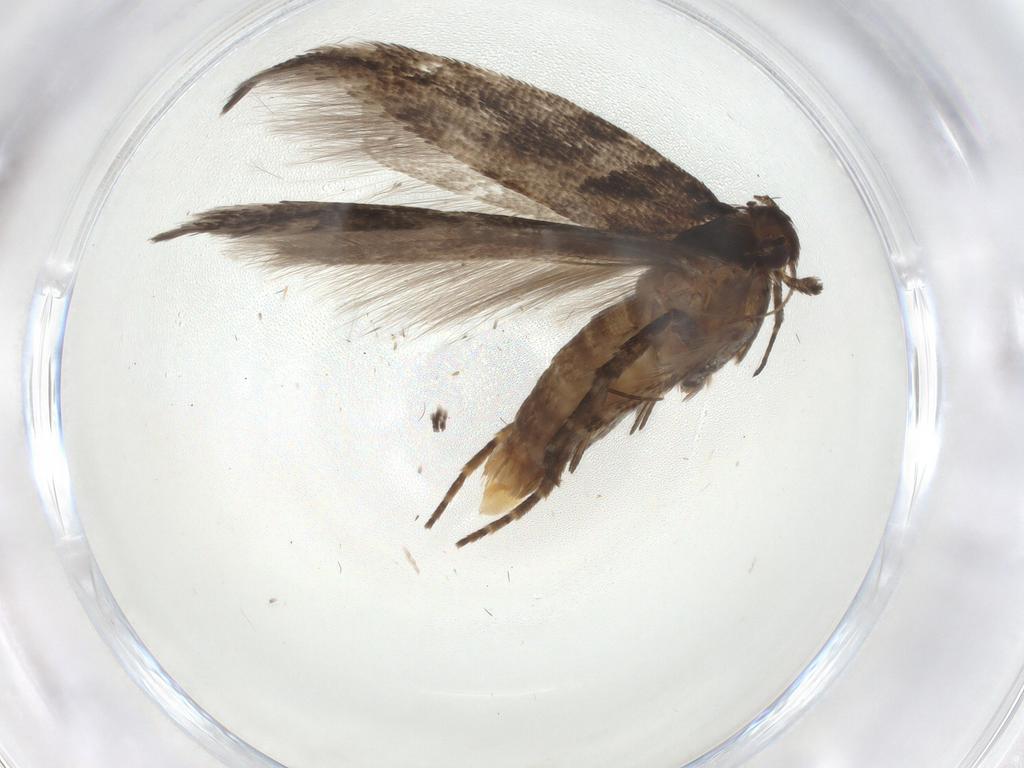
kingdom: Animalia
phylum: Arthropoda
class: Insecta
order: Lepidoptera
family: Gelechiidae
